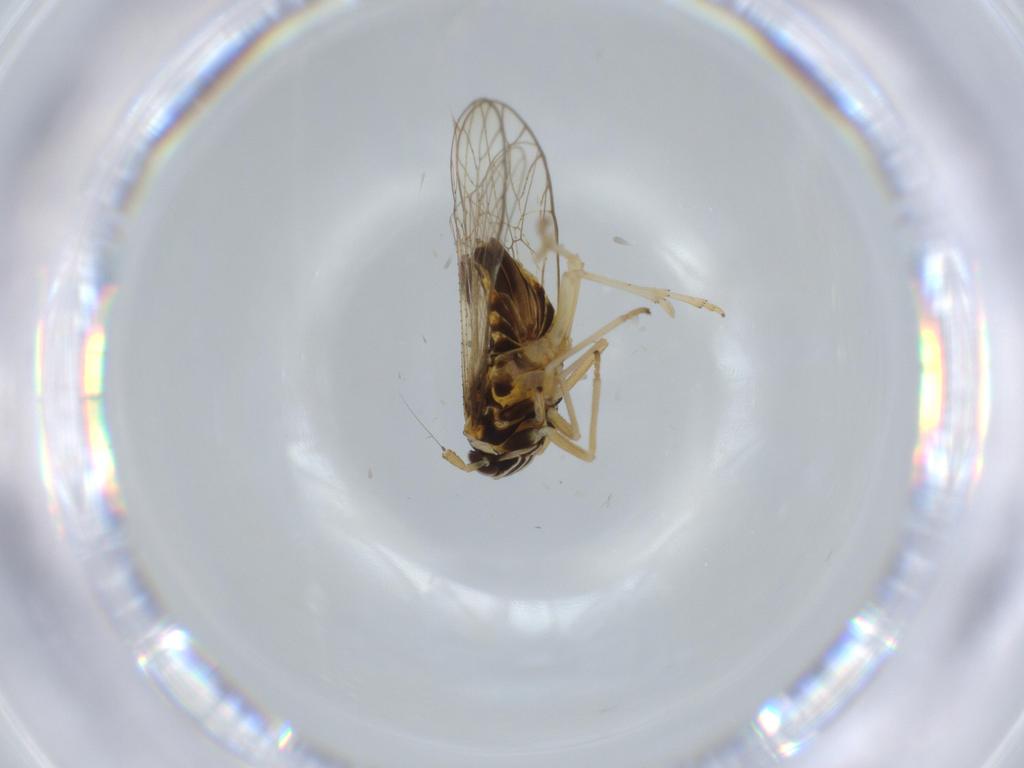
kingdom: Animalia
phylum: Arthropoda
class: Insecta
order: Hemiptera
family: Aleyrodidae
